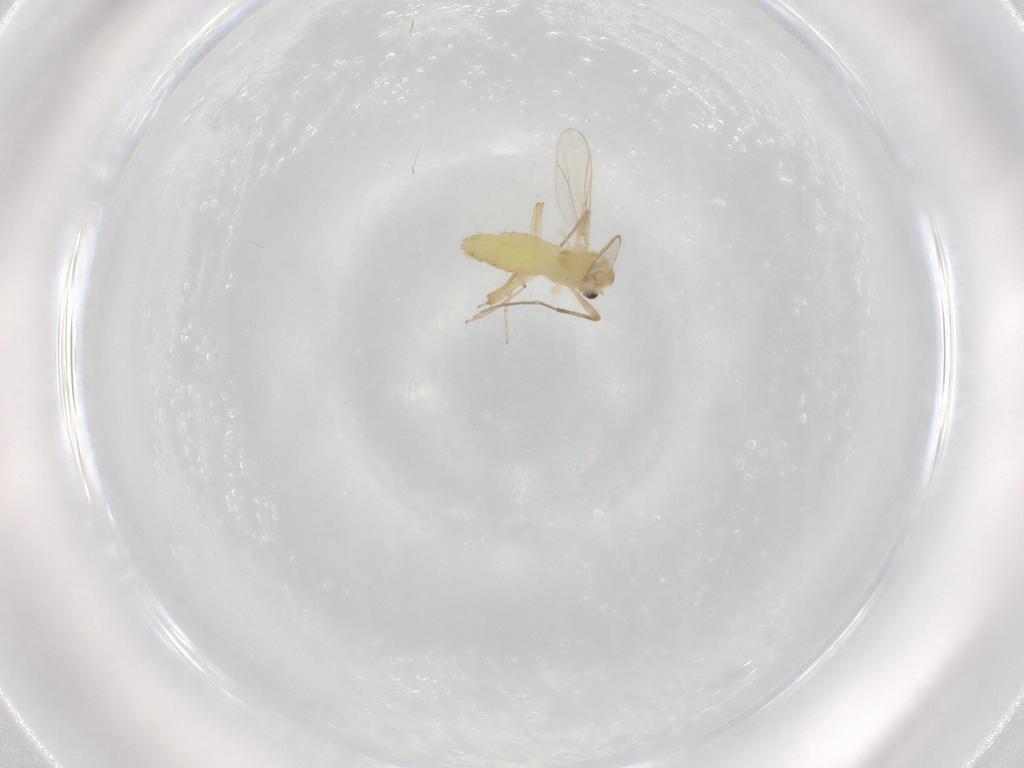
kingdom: Animalia
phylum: Arthropoda
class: Insecta
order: Diptera
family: Chironomidae
